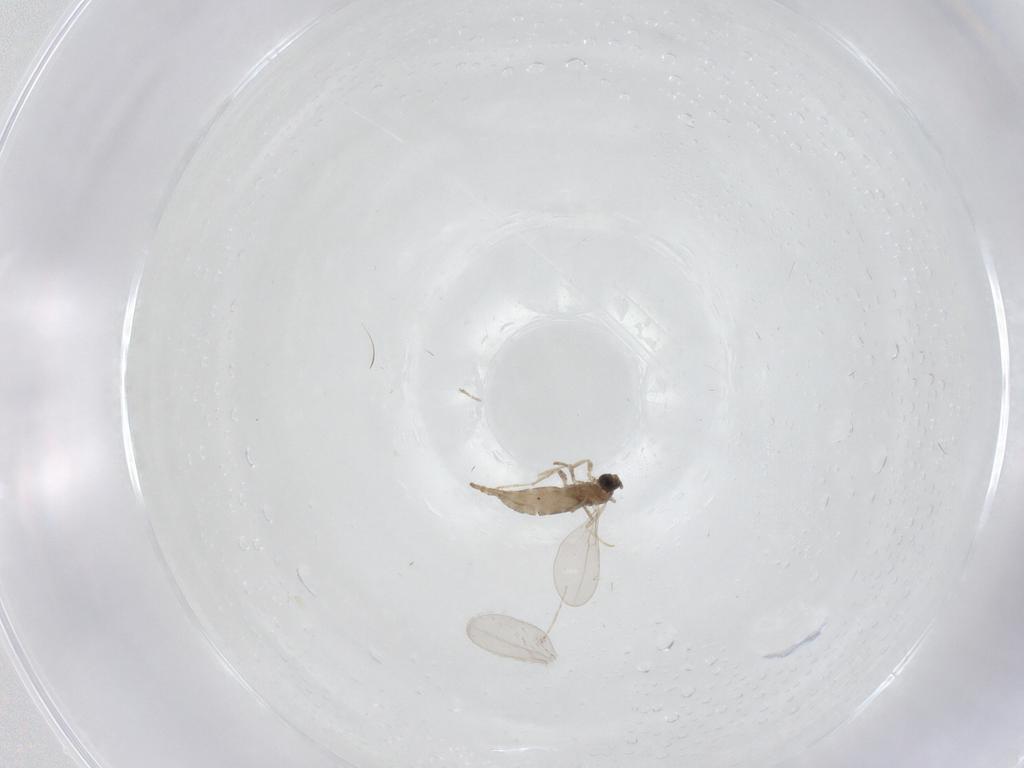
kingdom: Animalia
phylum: Arthropoda
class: Insecta
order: Diptera
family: Cecidomyiidae
